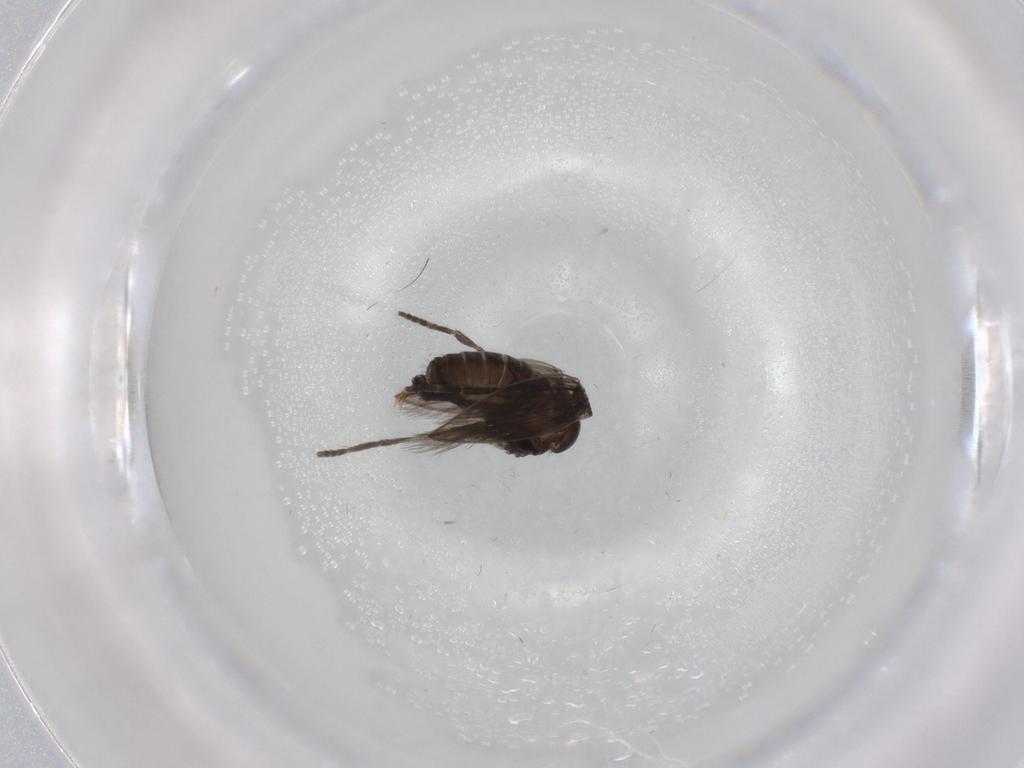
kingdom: Animalia
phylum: Arthropoda
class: Insecta
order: Diptera
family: Psychodidae
